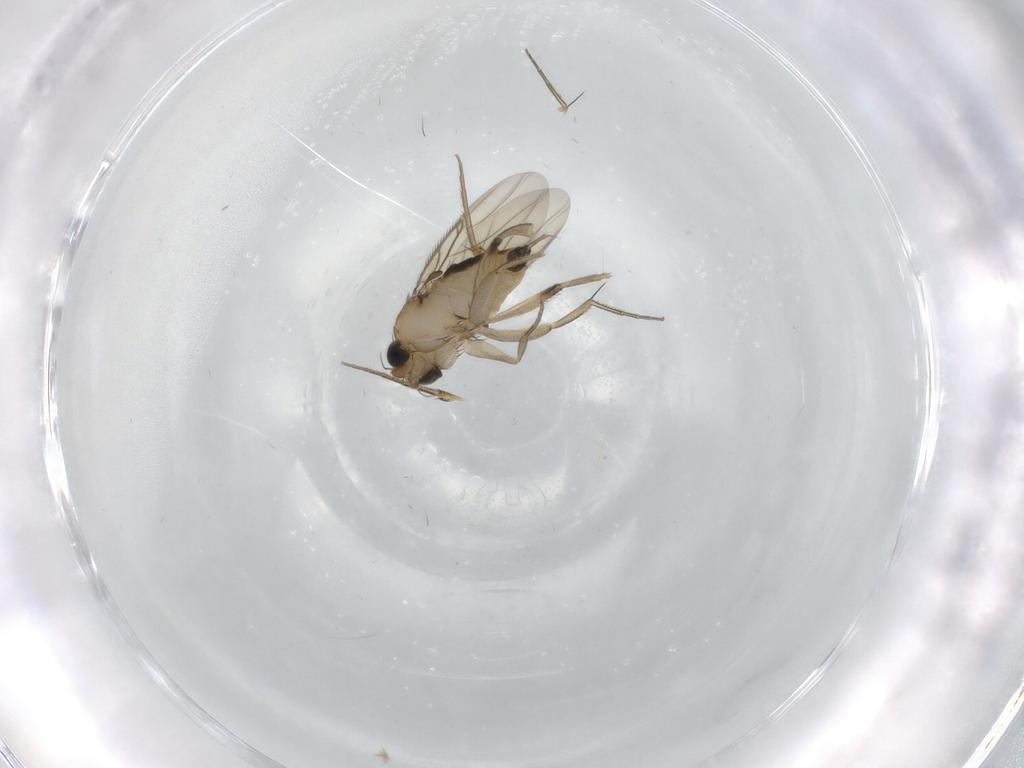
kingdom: Animalia
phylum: Arthropoda
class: Insecta
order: Diptera
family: Phoridae
